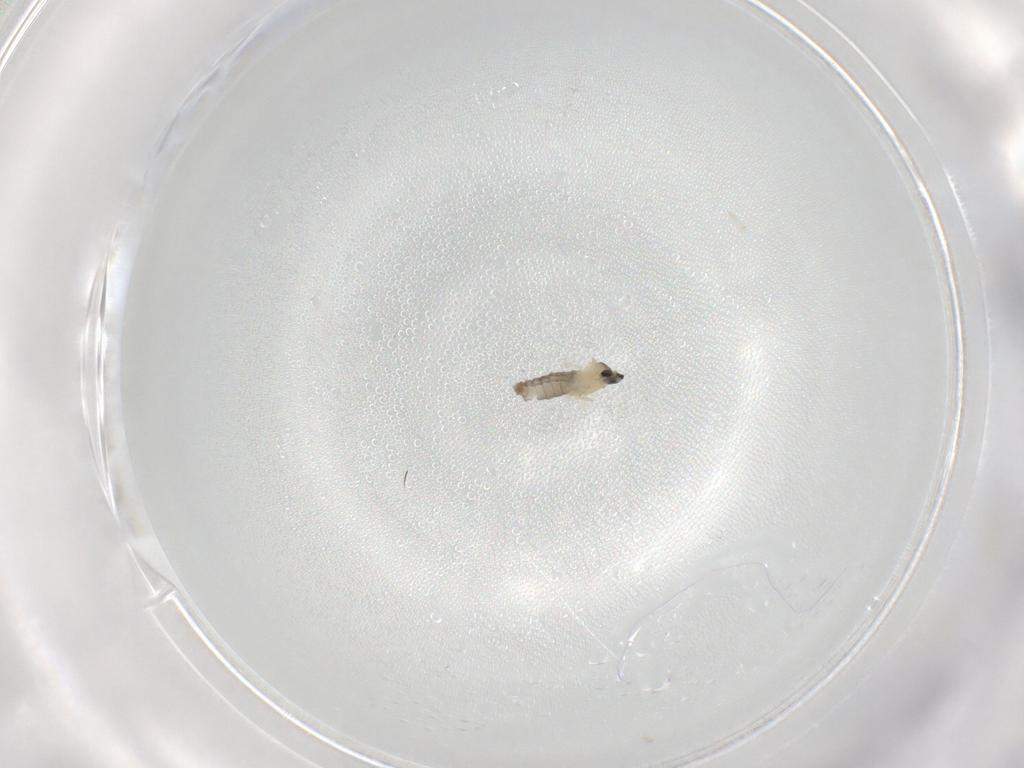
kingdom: Animalia
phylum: Arthropoda
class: Insecta
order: Diptera
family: Cecidomyiidae
